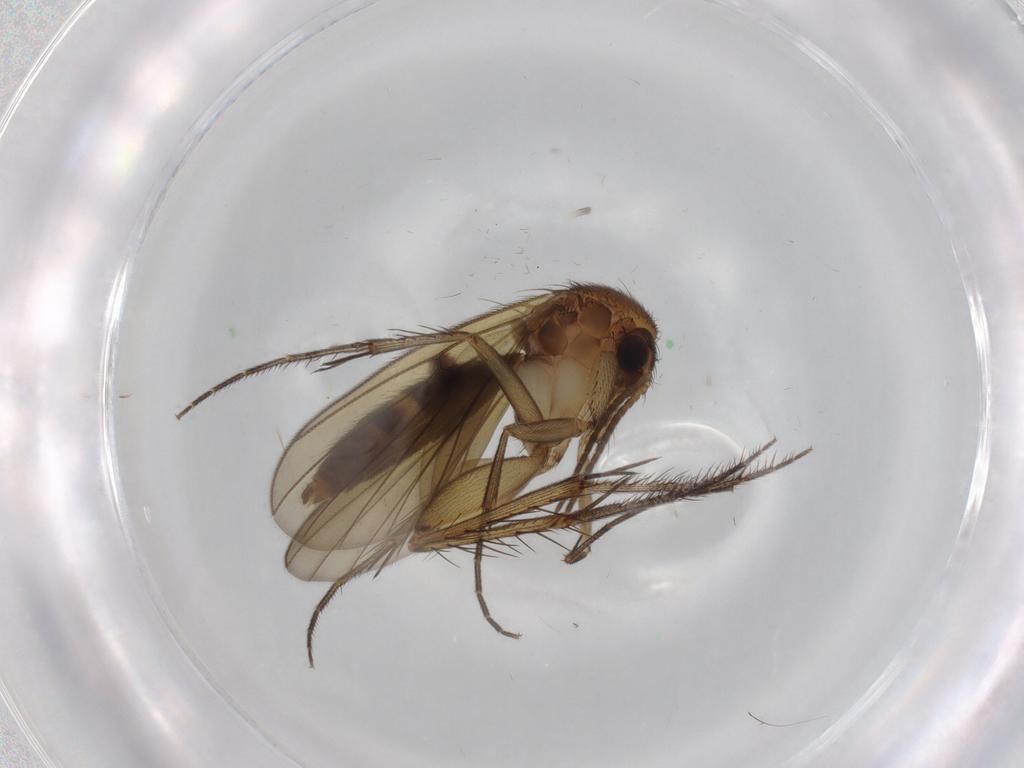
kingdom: Animalia
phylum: Arthropoda
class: Insecta
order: Diptera
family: Mycetophilidae
